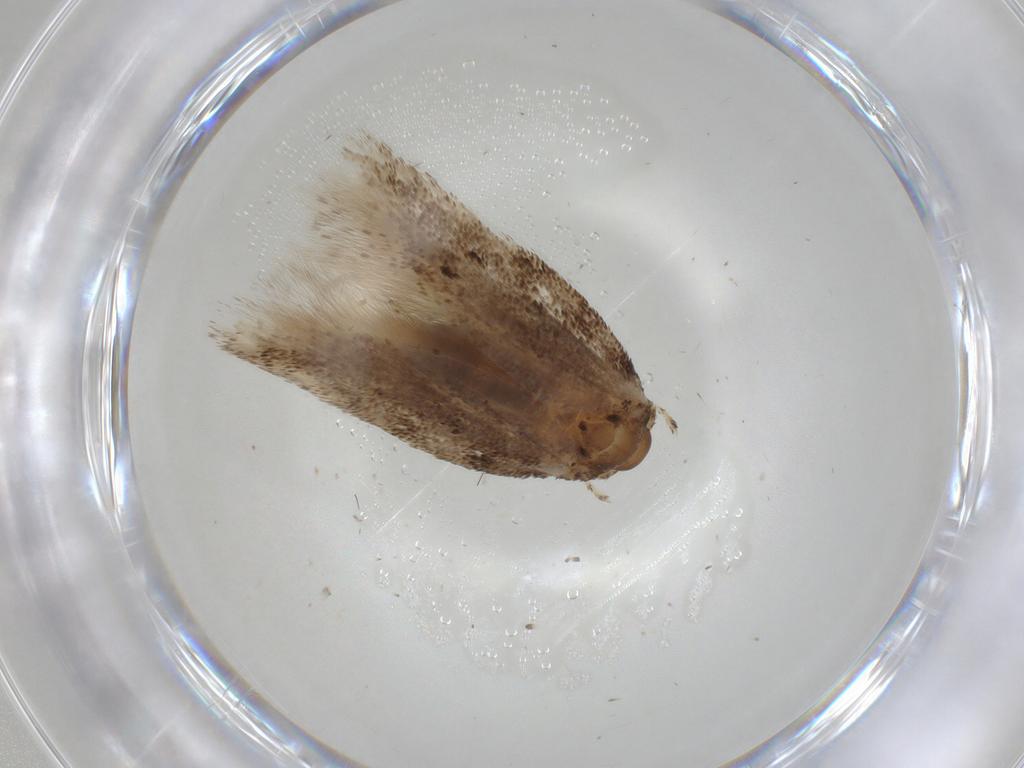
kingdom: Animalia
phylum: Arthropoda
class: Insecta
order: Lepidoptera
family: Gelechiidae
